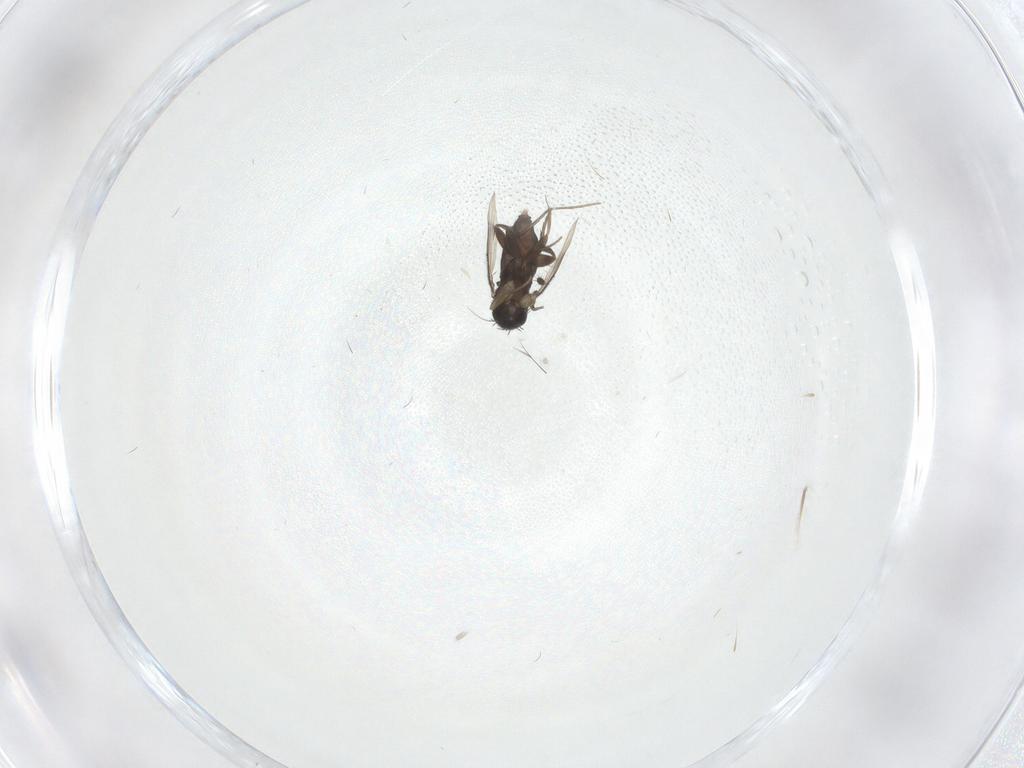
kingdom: Animalia
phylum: Arthropoda
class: Insecta
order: Diptera
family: Phoridae
